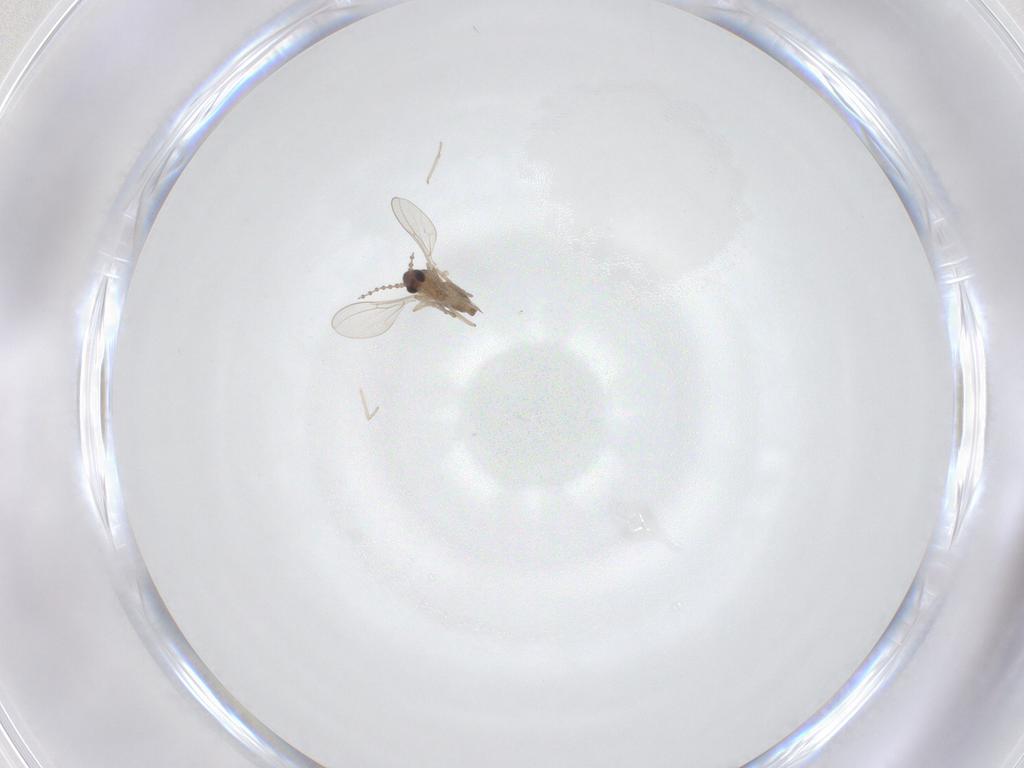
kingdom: Animalia
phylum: Arthropoda
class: Insecta
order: Diptera
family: Cecidomyiidae
